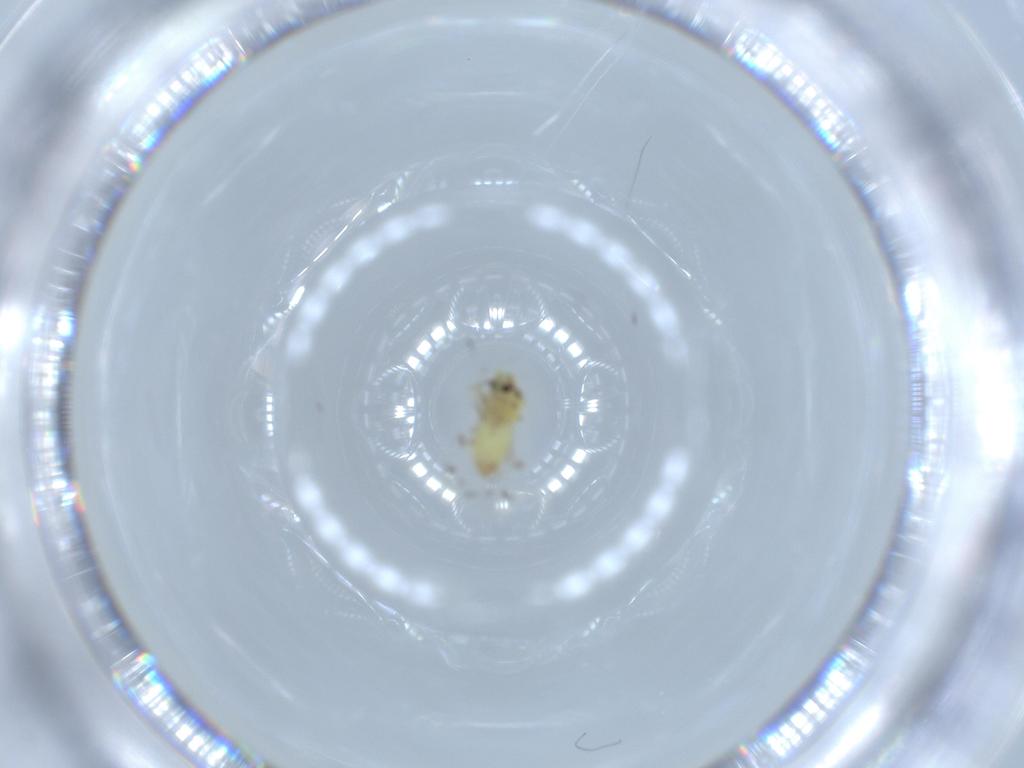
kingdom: Animalia
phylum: Arthropoda
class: Insecta
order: Hemiptera
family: Aleyrodidae
